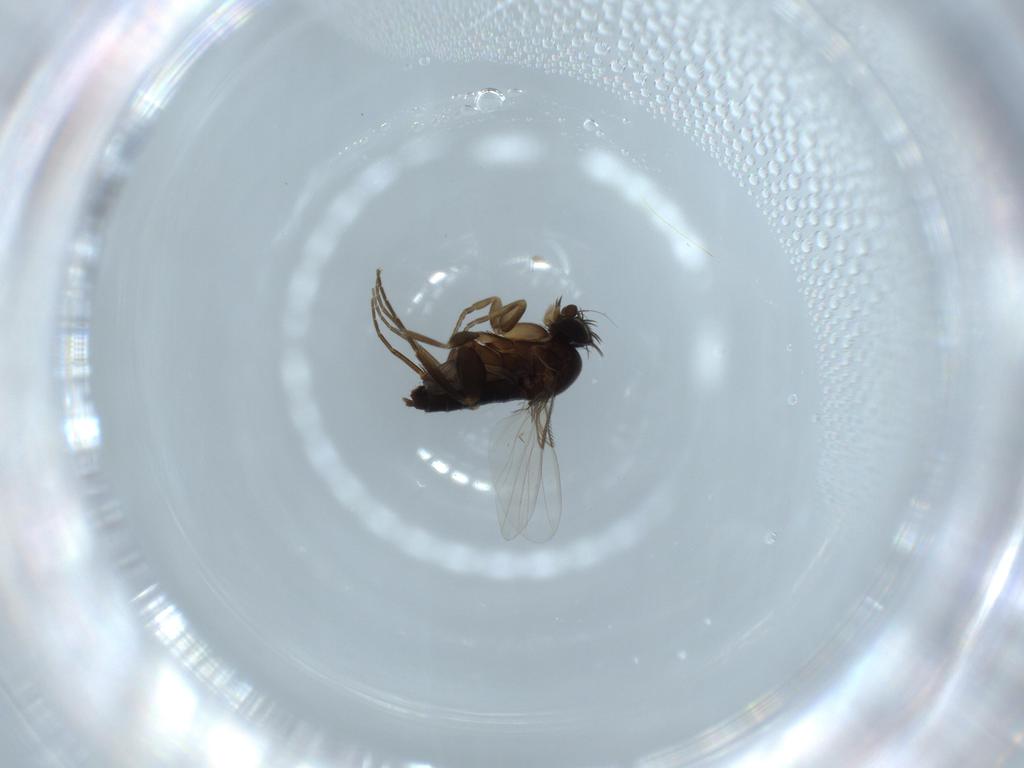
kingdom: Animalia
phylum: Arthropoda
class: Insecta
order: Diptera
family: Phoridae
